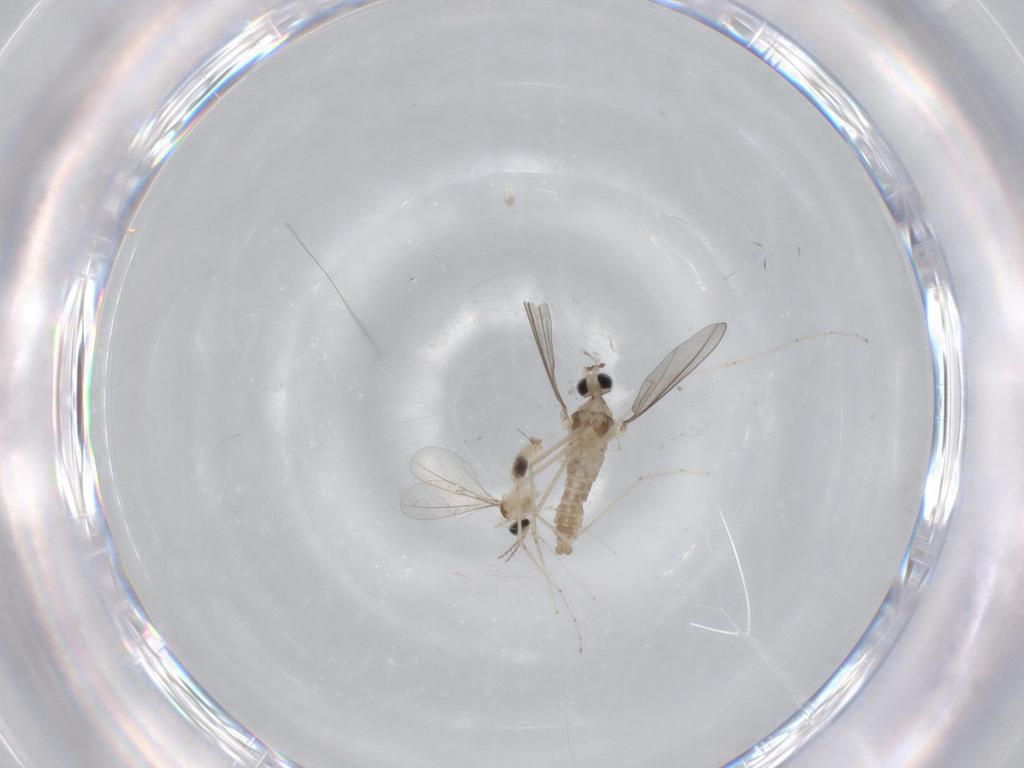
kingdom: Animalia
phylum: Arthropoda
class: Insecta
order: Diptera
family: Cecidomyiidae
